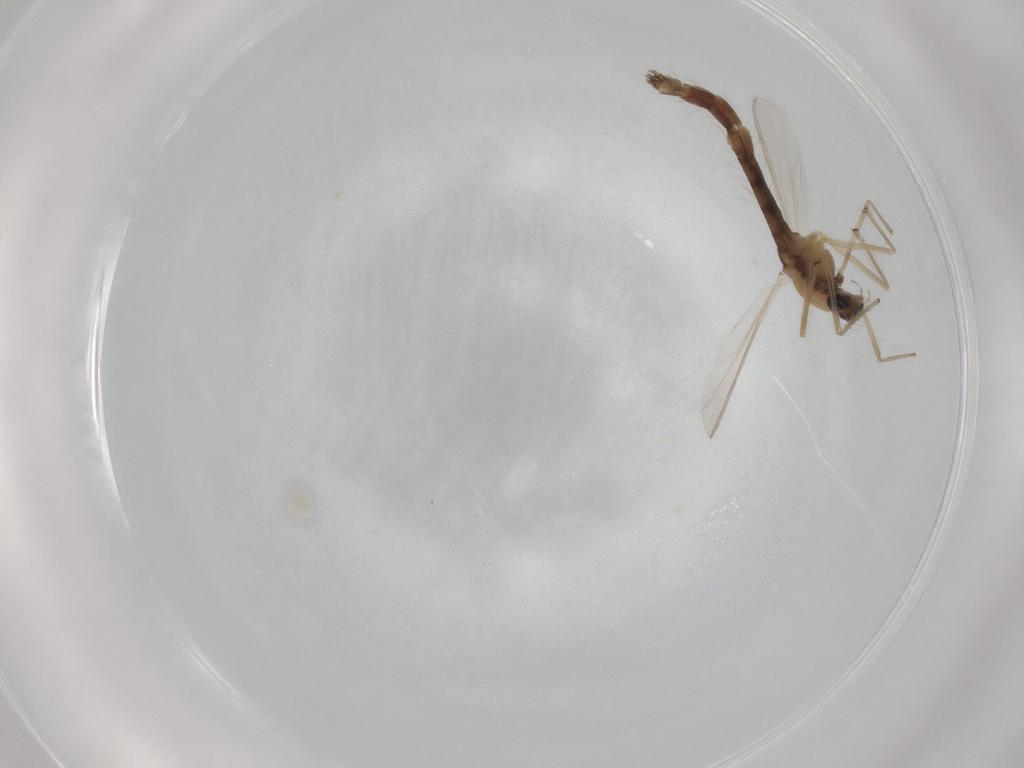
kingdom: Animalia
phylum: Arthropoda
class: Insecta
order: Diptera
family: Chironomidae
